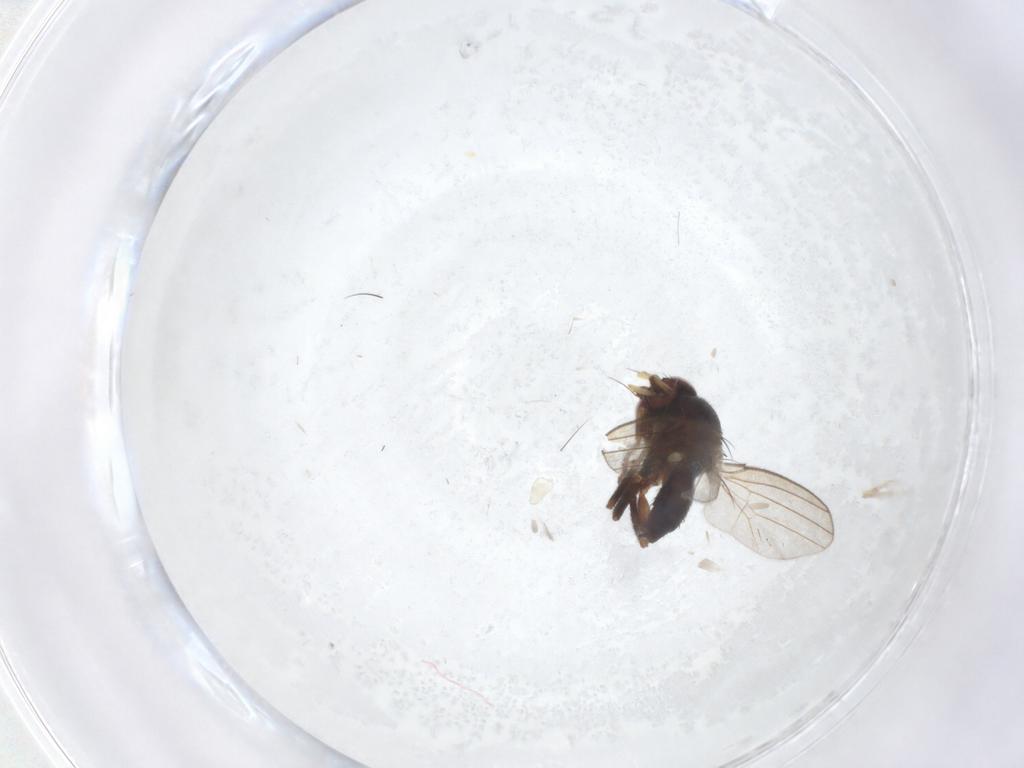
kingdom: Animalia
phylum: Arthropoda
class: Insecta
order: Diptera
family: Milichiidae
